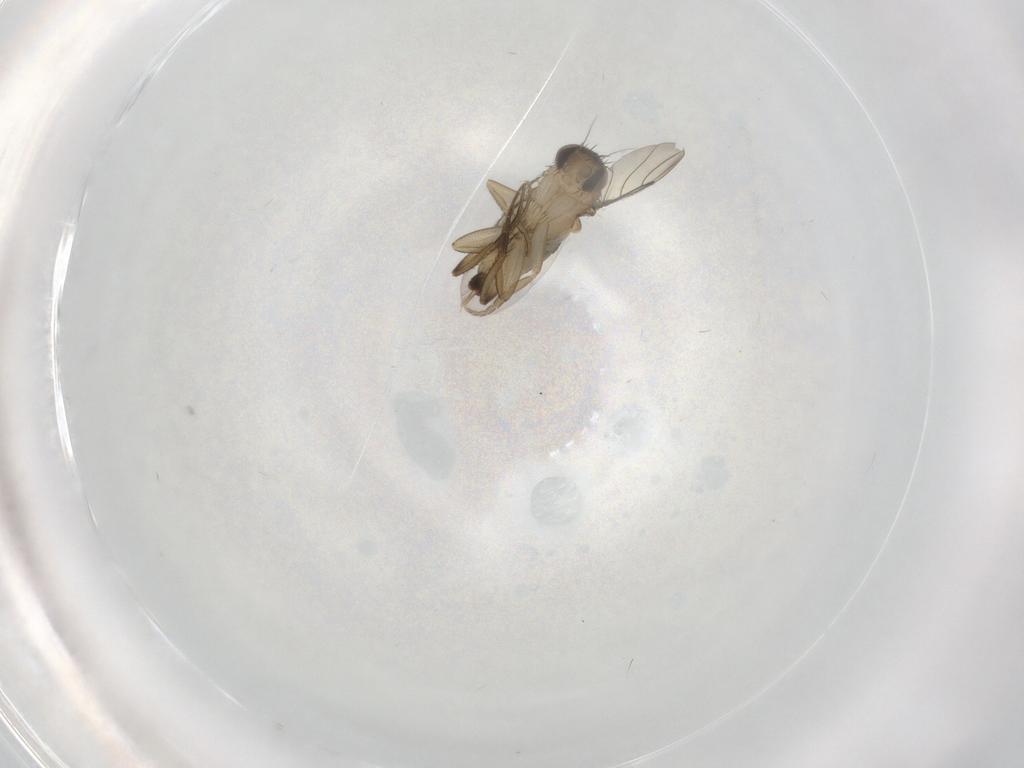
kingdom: Animalia
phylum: Arthropoda
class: Insecta
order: Diptera
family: Phoridae
